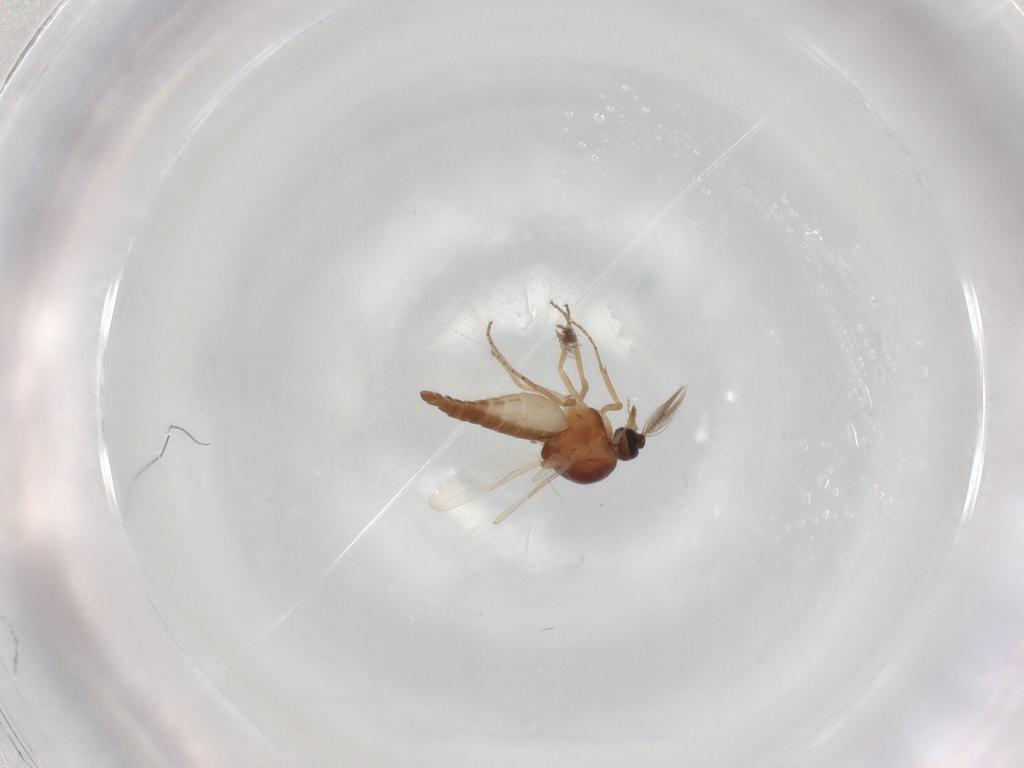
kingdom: Animalia
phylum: Arthropoda
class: Insecta
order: Diptera
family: Ceratopogonidae
